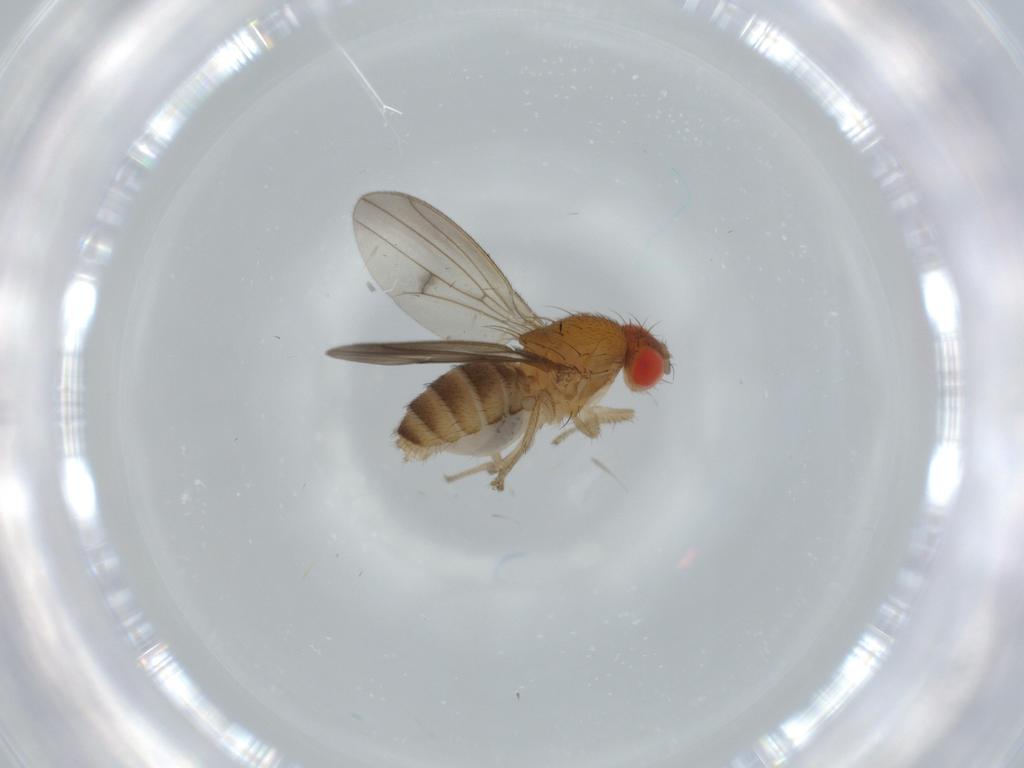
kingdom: Animalia
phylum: Arthropoda
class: Insecta
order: Diptera
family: Drosophilidae
